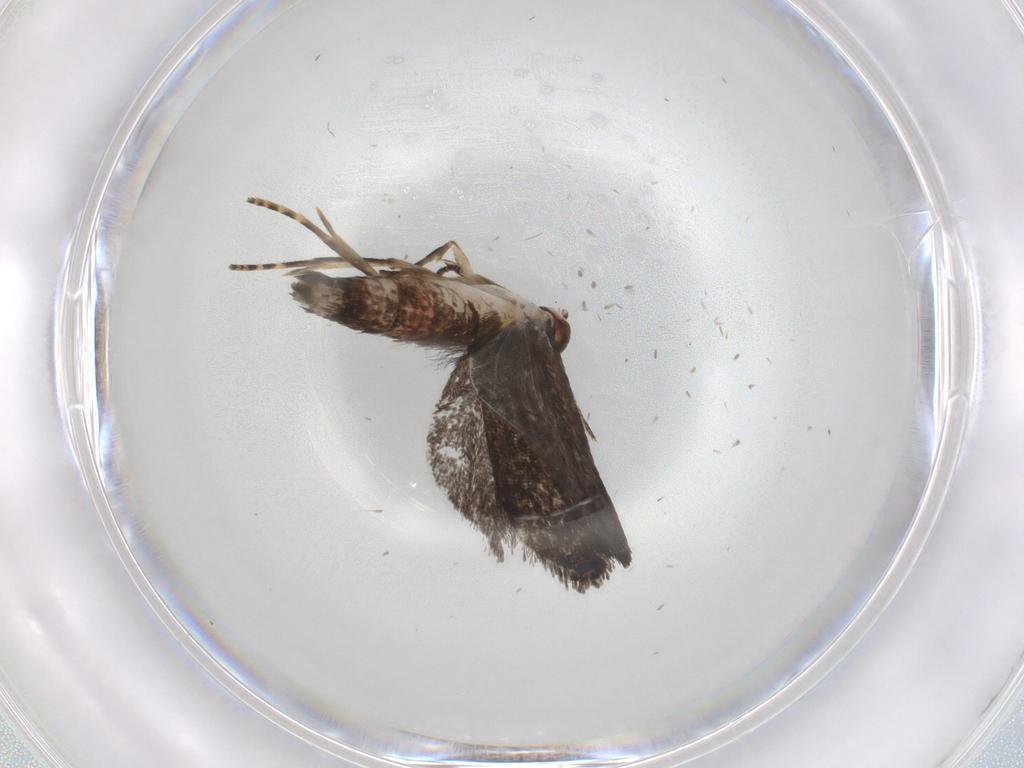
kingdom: Animalia
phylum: Arthropoda
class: Insecta
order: Lepidoptera
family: Gelechiidae
